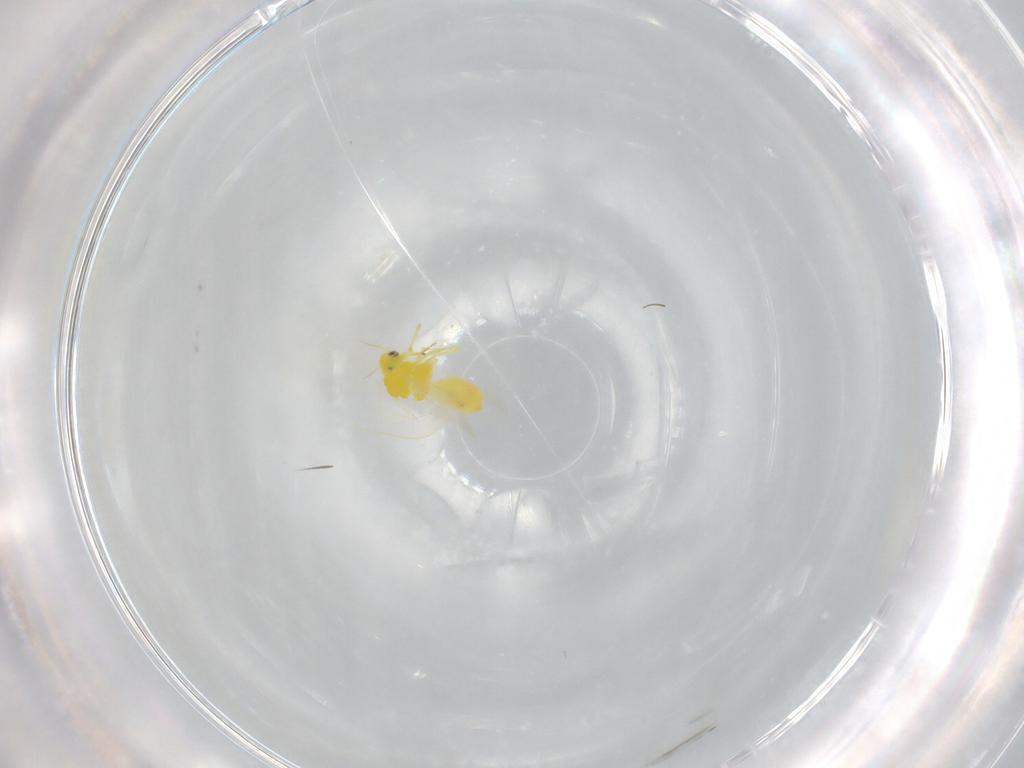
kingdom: Animalia
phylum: Arthropoda
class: Insecta
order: Hemiptera
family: Aleyrodidae
